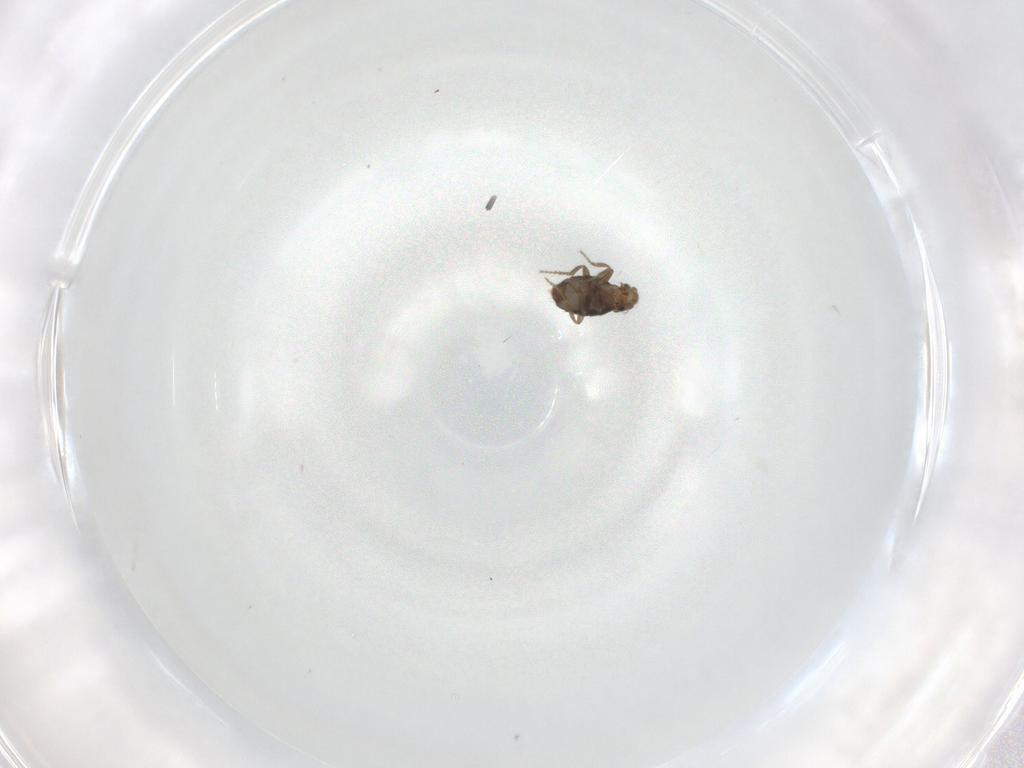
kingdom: Animalia
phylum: Arthropoda
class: Insecta
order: Diptera
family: Phoridae
